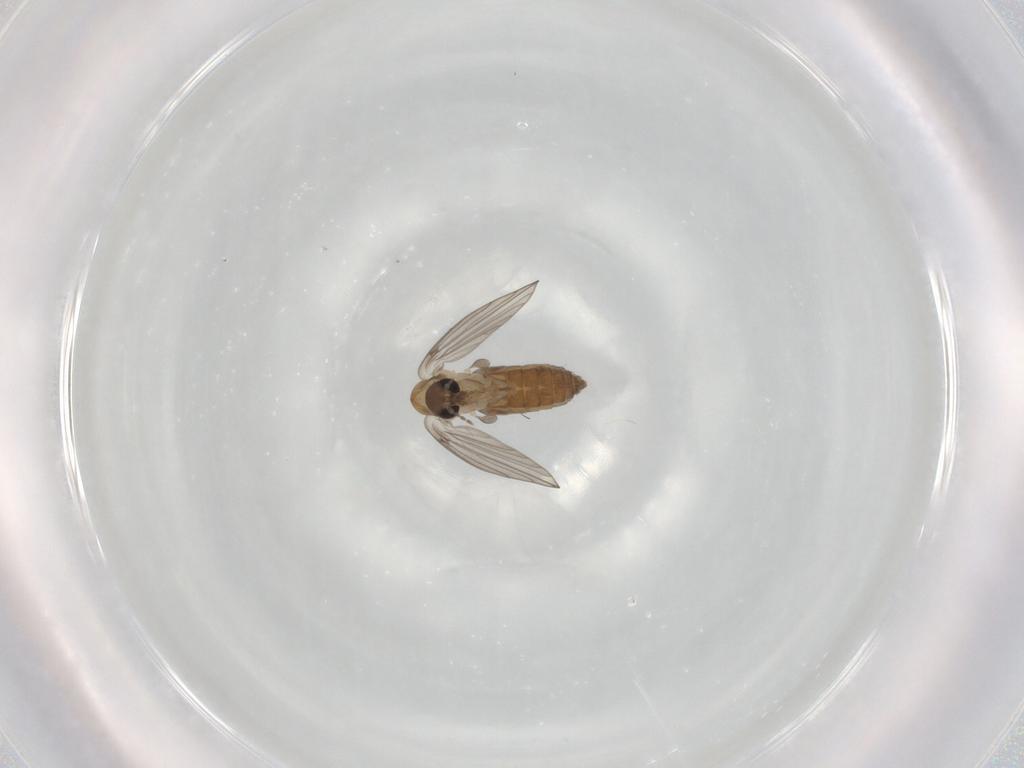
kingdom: Animalia
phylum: Arthropoda
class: Insecta
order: Diptera
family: Psychodidae
